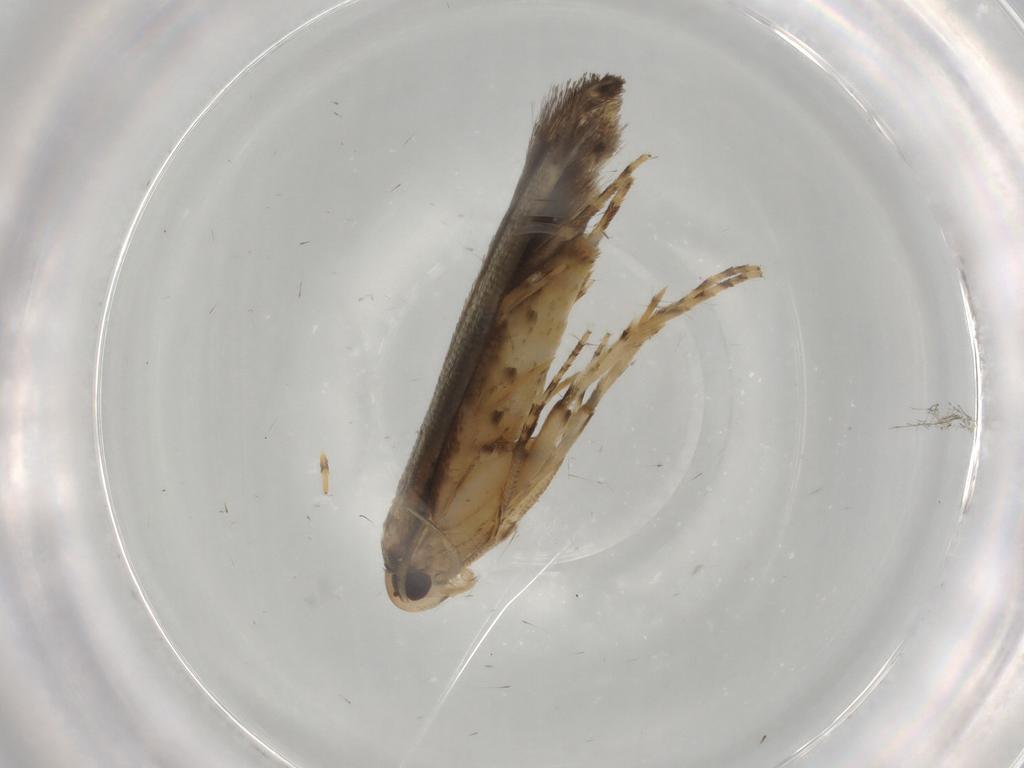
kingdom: Animalia
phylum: Arthropoda
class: Insecta
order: Lepidoptera
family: Cosmopterigidae
